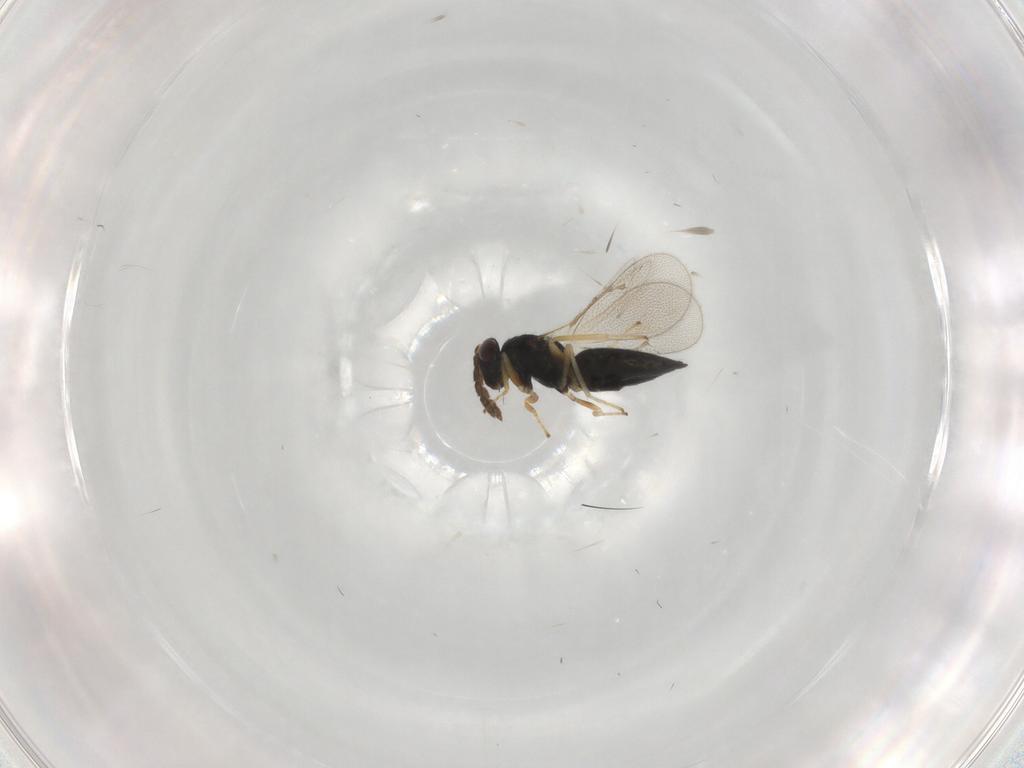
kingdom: Animalia
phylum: Arthropoda
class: Insecta
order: Hymenoptera
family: Eulophidae
